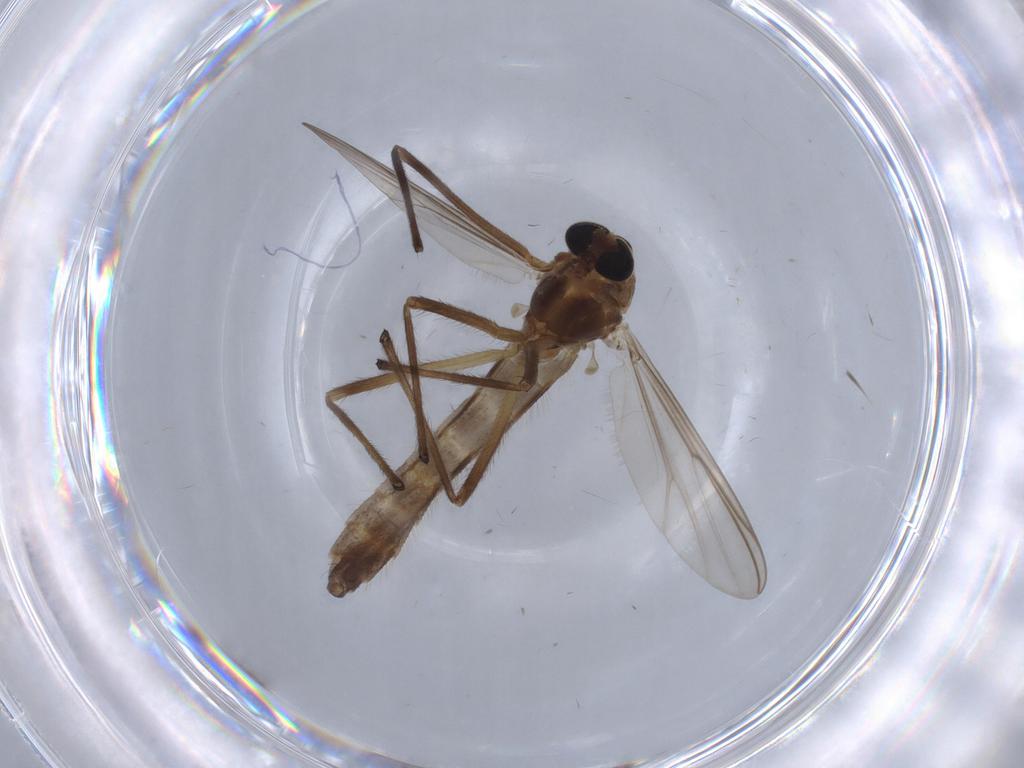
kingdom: Animalia
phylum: Arthropoda
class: Insecta
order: Diptera
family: Chironomidae
